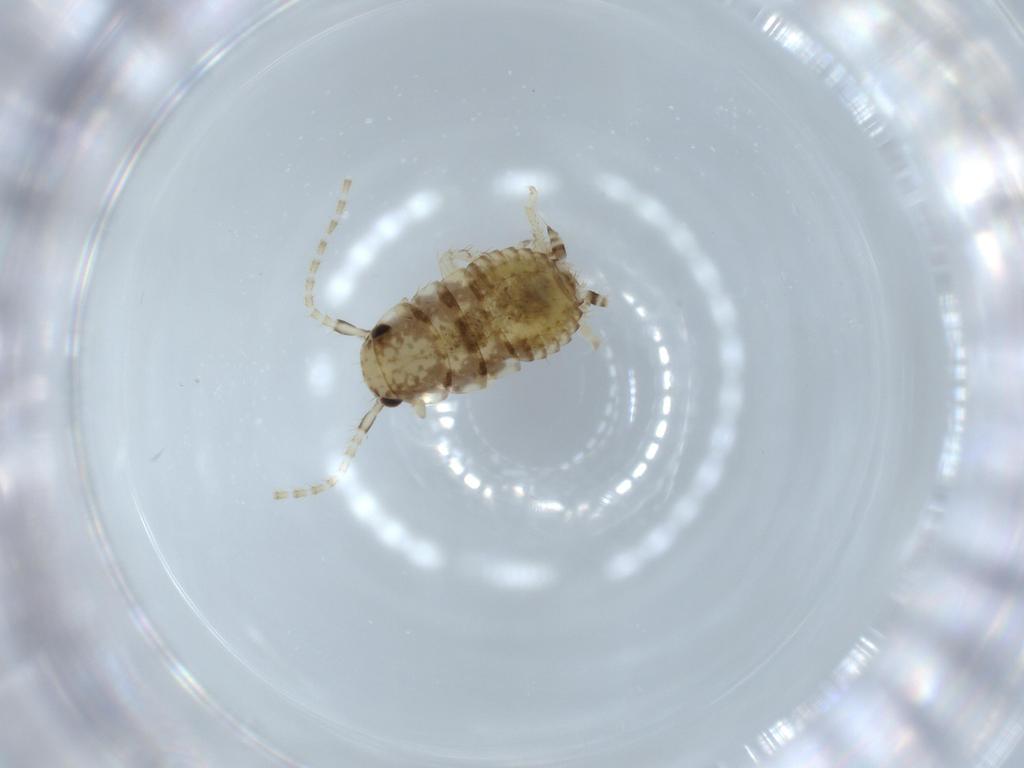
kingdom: Animalia
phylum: Arthropoda
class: Insecta
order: Blattodea
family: Ectobiidae
